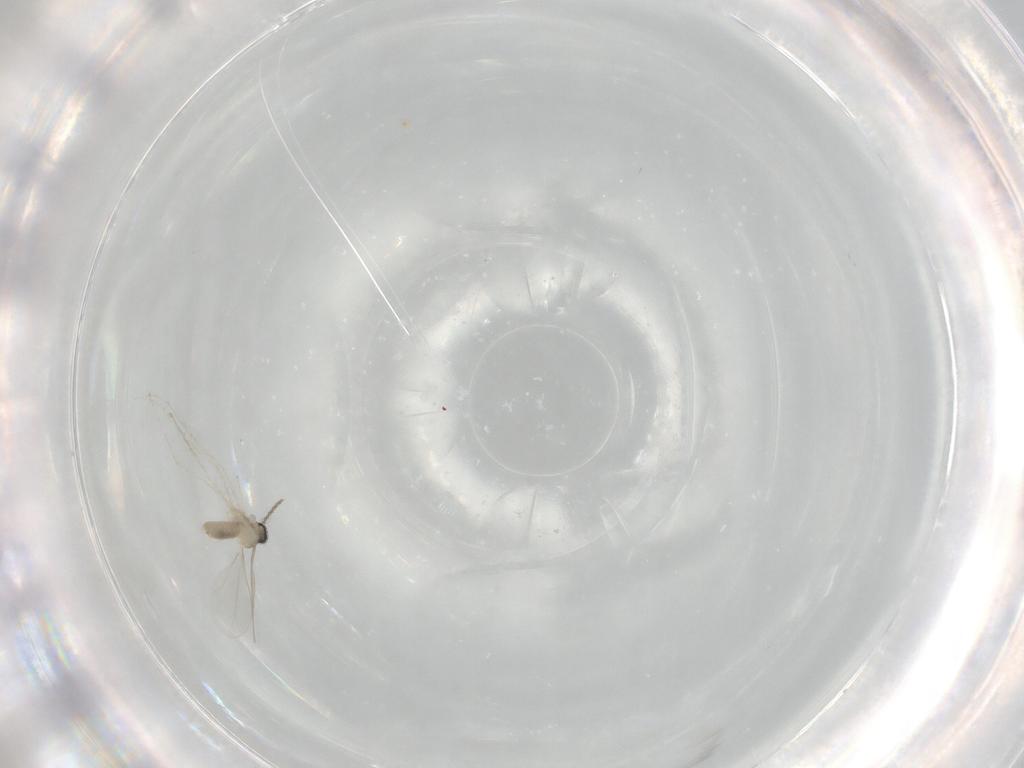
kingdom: Animalia
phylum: Arthropoda
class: Insecta
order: Diptera
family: Cecidomyiidae
